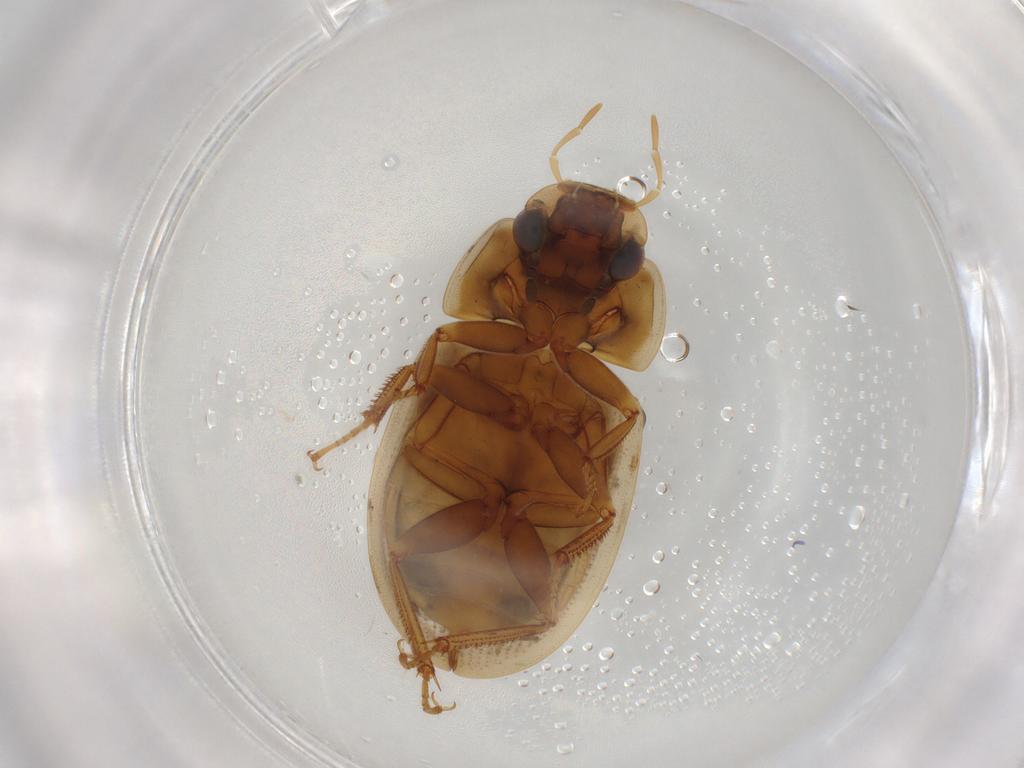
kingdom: Animalia
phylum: Arthropoda
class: Insecta
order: Coleoptera
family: Limnichidae
